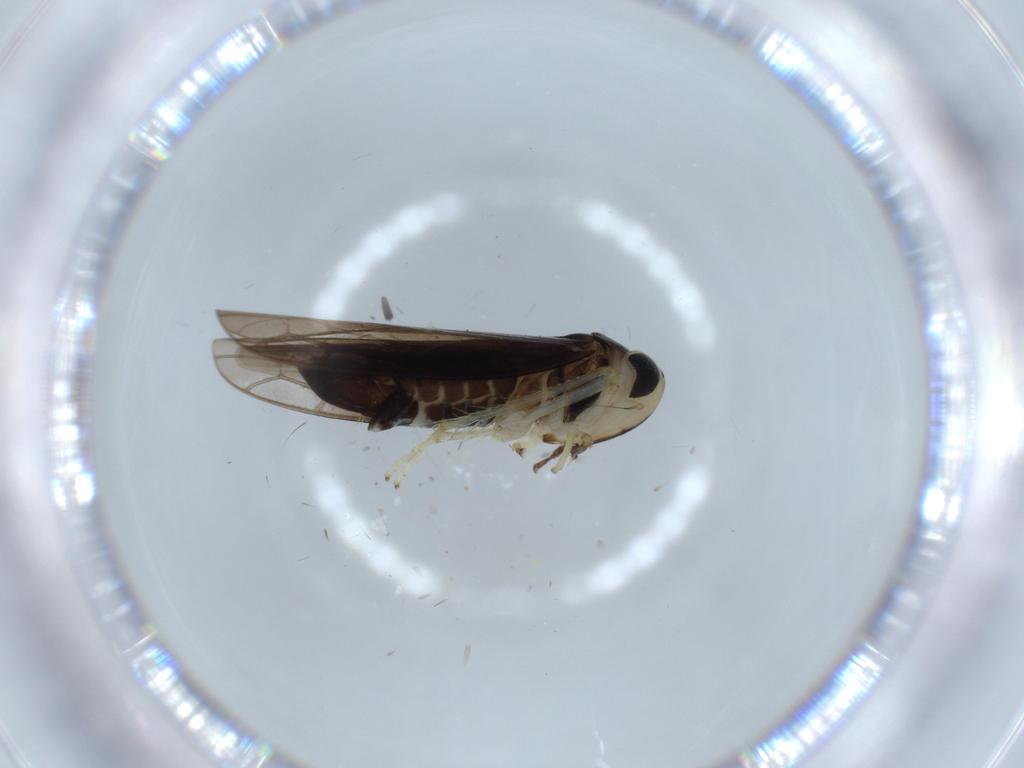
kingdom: Animalia
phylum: Arthropoda
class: Insecta
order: Hemiptera
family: Cicadellidae
